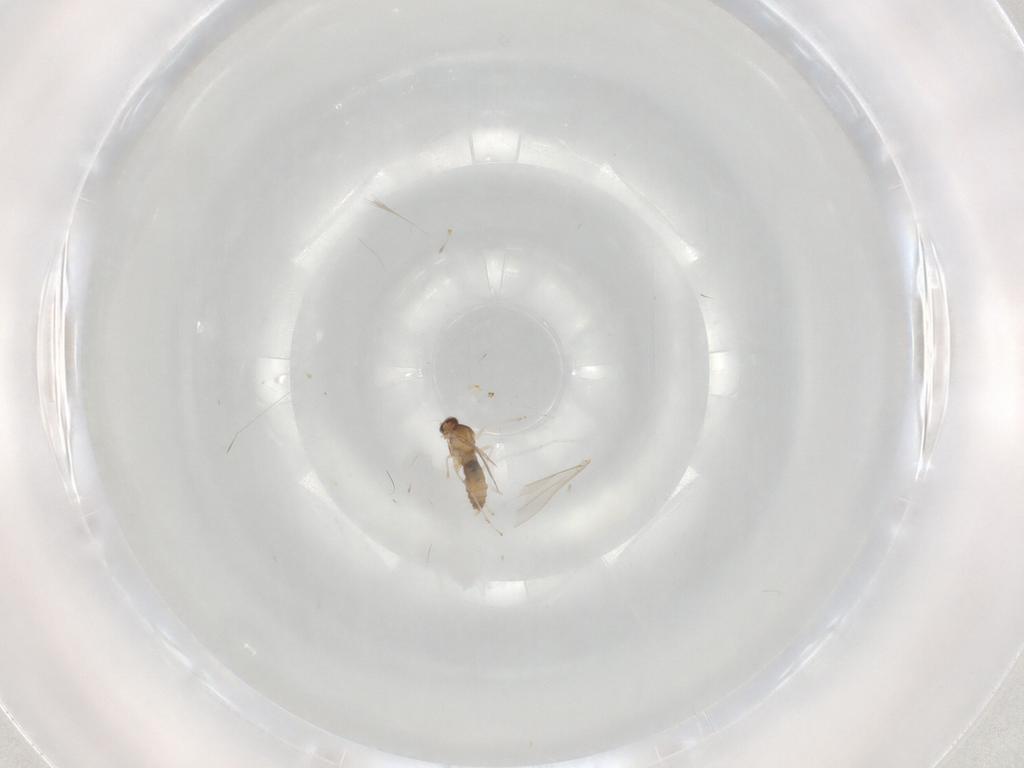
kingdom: Animalia
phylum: Arthropoda
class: Insecta
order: Diptera
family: Cecidomyiidae
